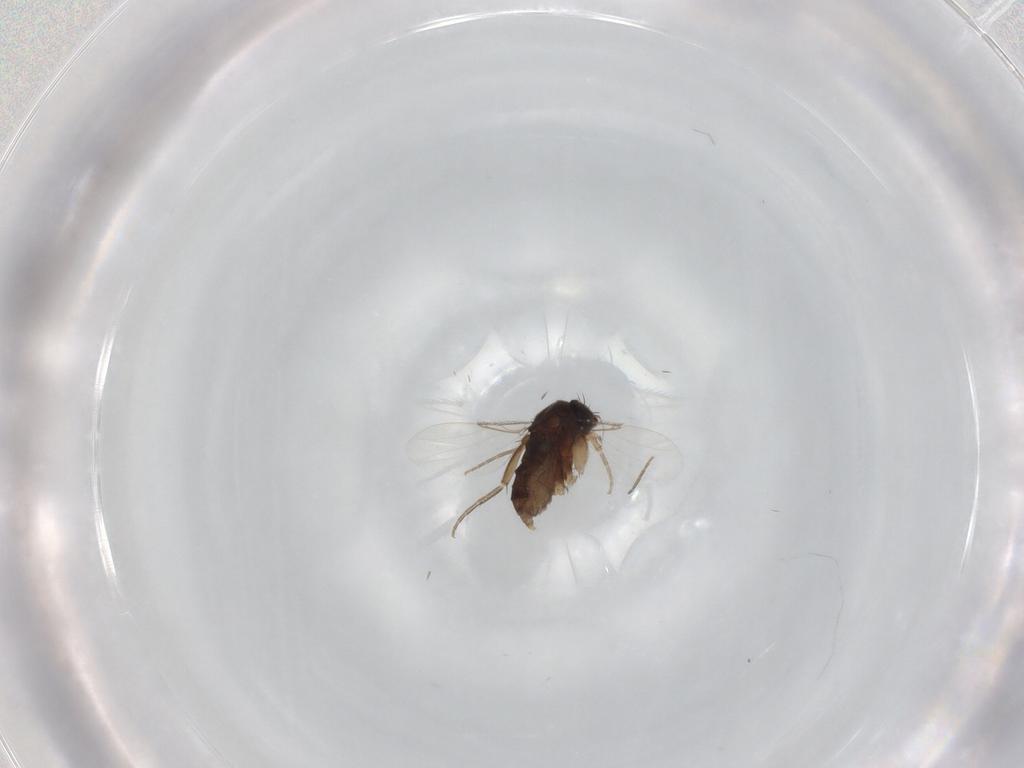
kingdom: Animalia
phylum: Arthropoda
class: Insecta
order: Diptera
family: Phoridae
